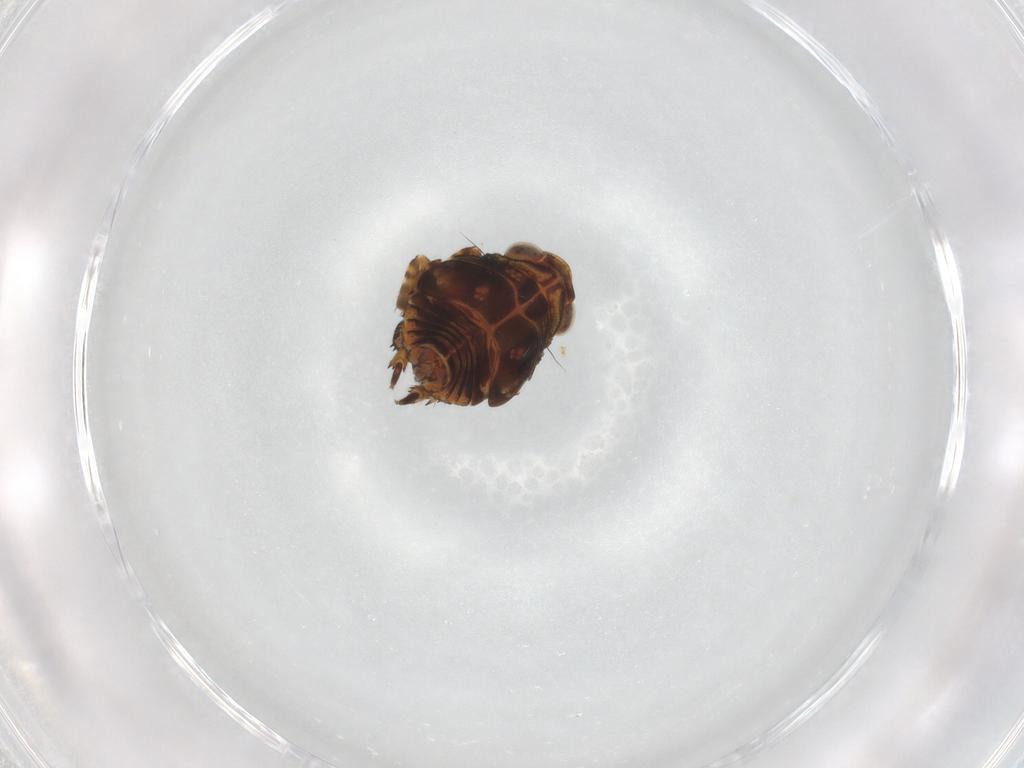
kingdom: Animalia
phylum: Arthropoda
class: Insecta
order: Hemiptera
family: Fulgoroidea_incertae_sedis
